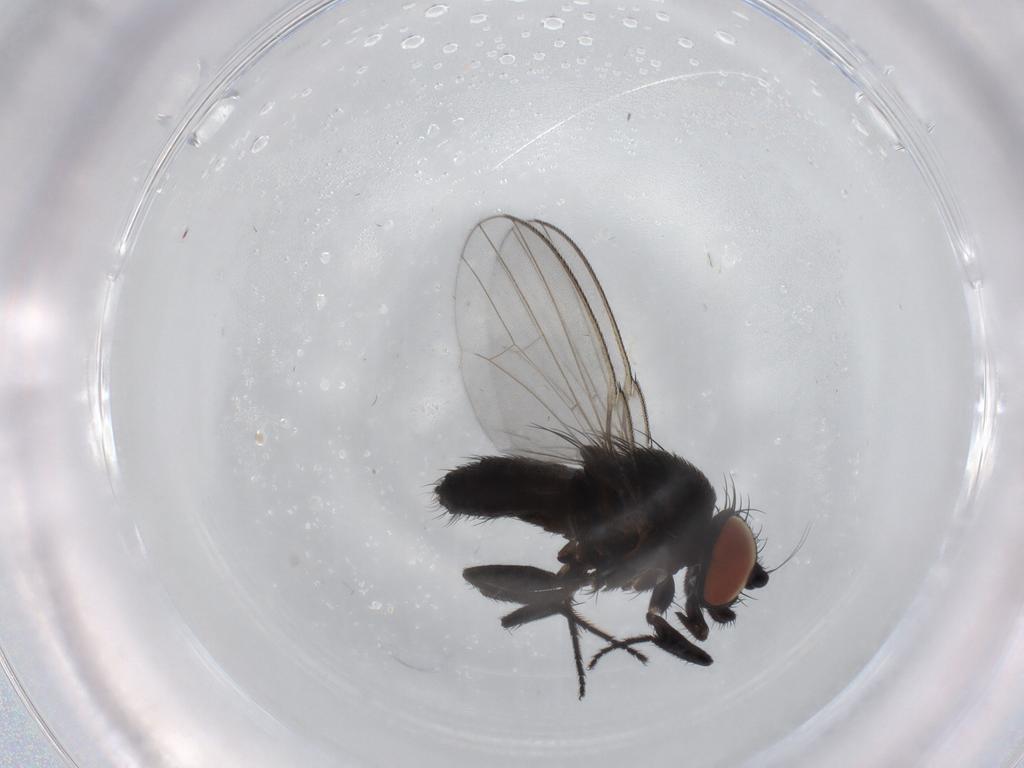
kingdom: Animalia
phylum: Arthropoda
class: Insecta
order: Diptera
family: Milichiidae
